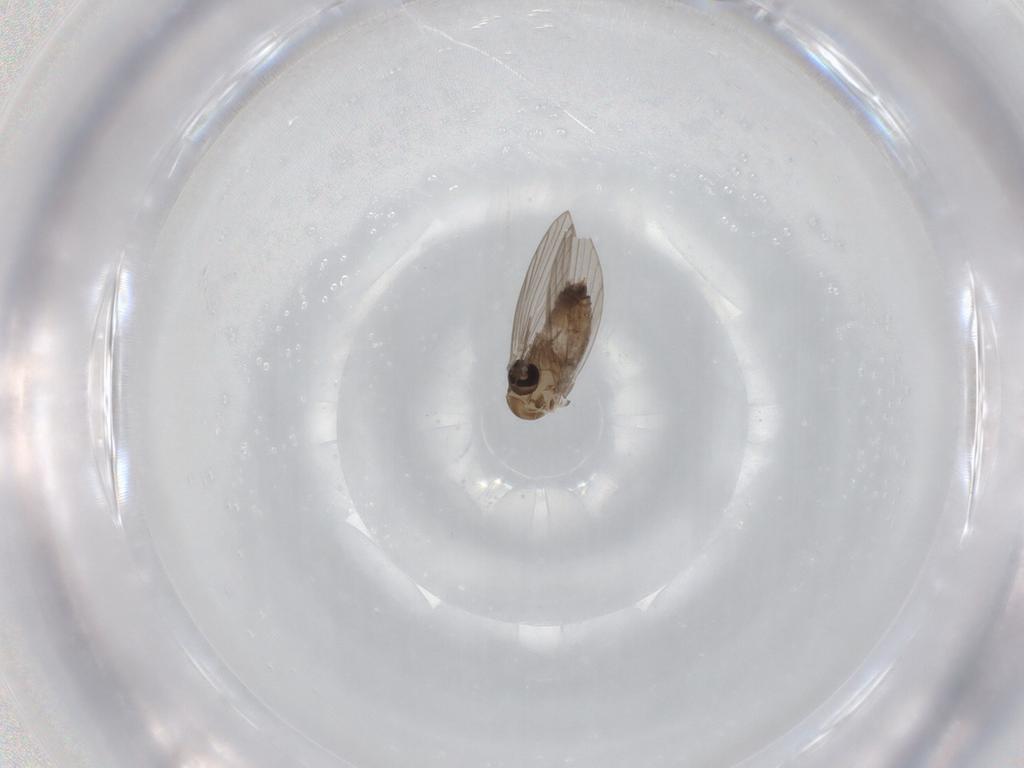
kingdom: Animalia
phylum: Arthropoda
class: Insecta
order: Diptera
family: Psychodidae
